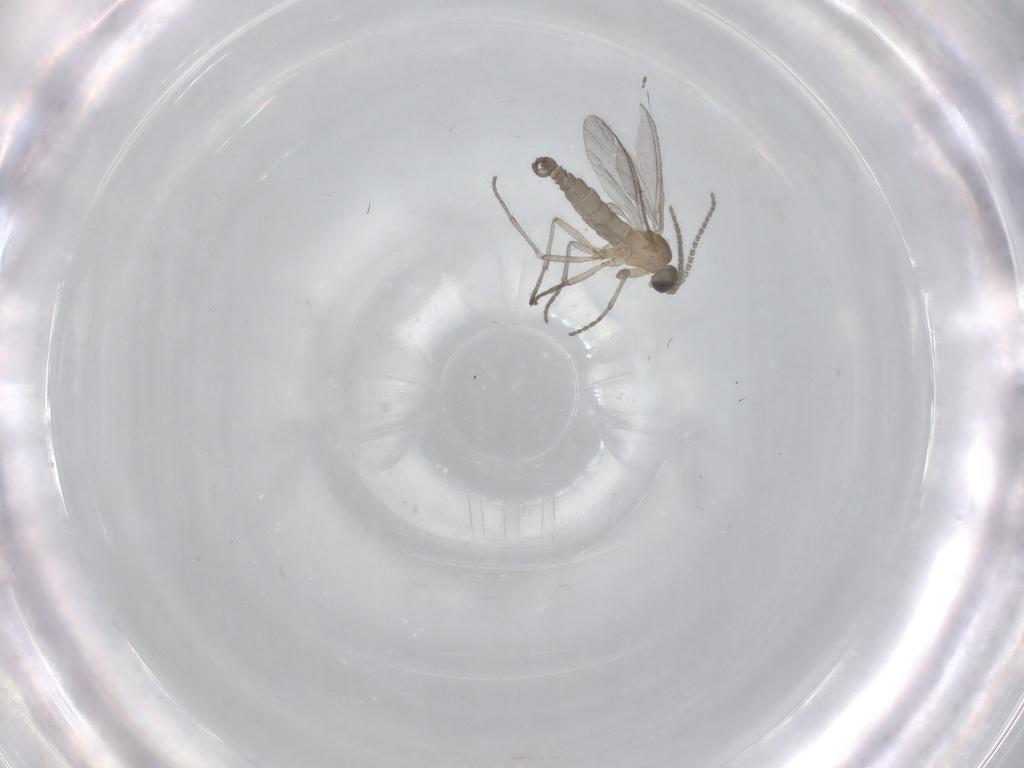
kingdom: Animalia
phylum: Arthropoda
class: Insecta
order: Diptera
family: Sciaridae
